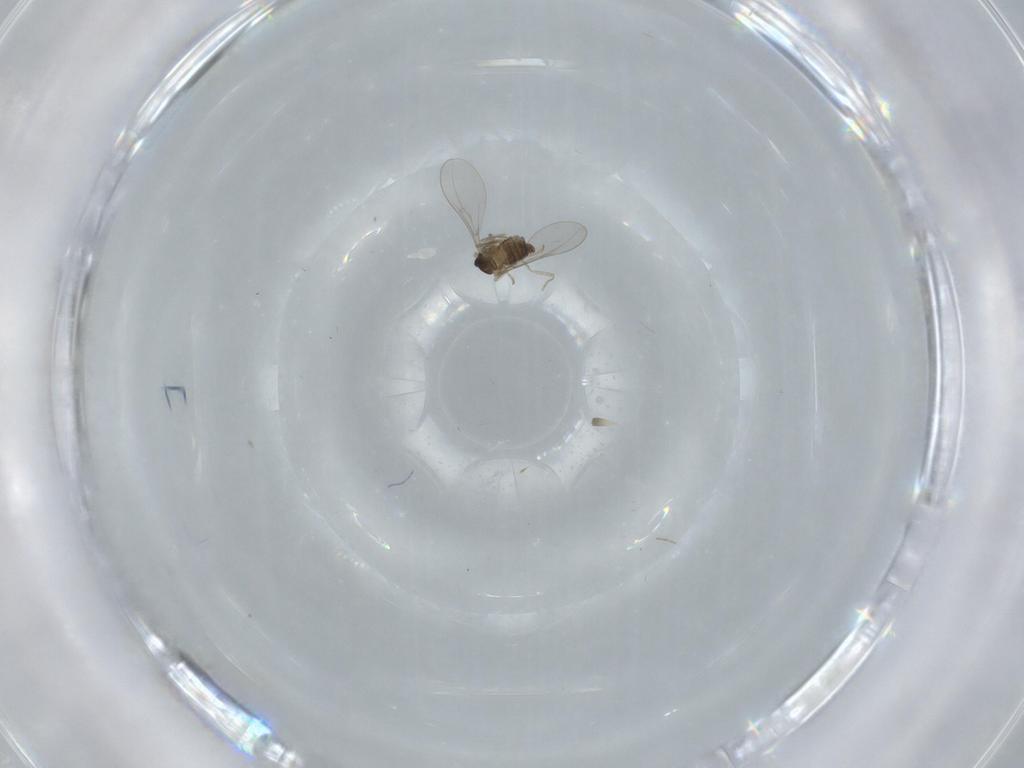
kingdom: Animalia
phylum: Arthropoda
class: Insecta
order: Diptera
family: Cecidomyiidae
